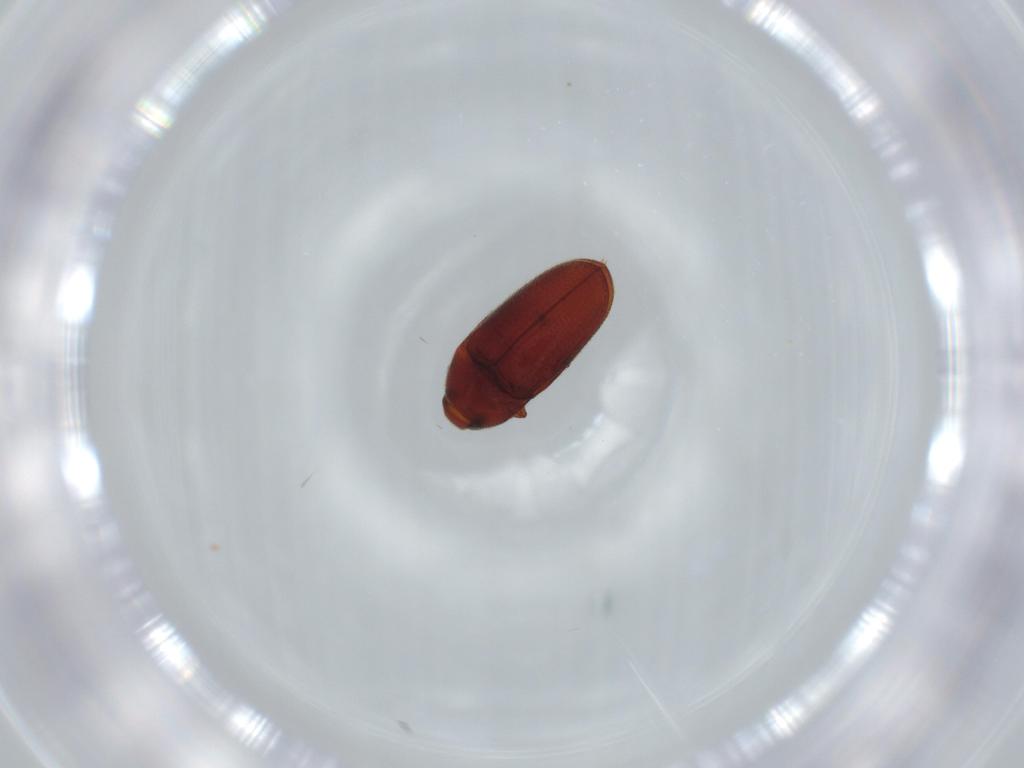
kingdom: Animalia
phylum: Arthropoda
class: Insecta
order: Coleoptera
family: Throscidae
